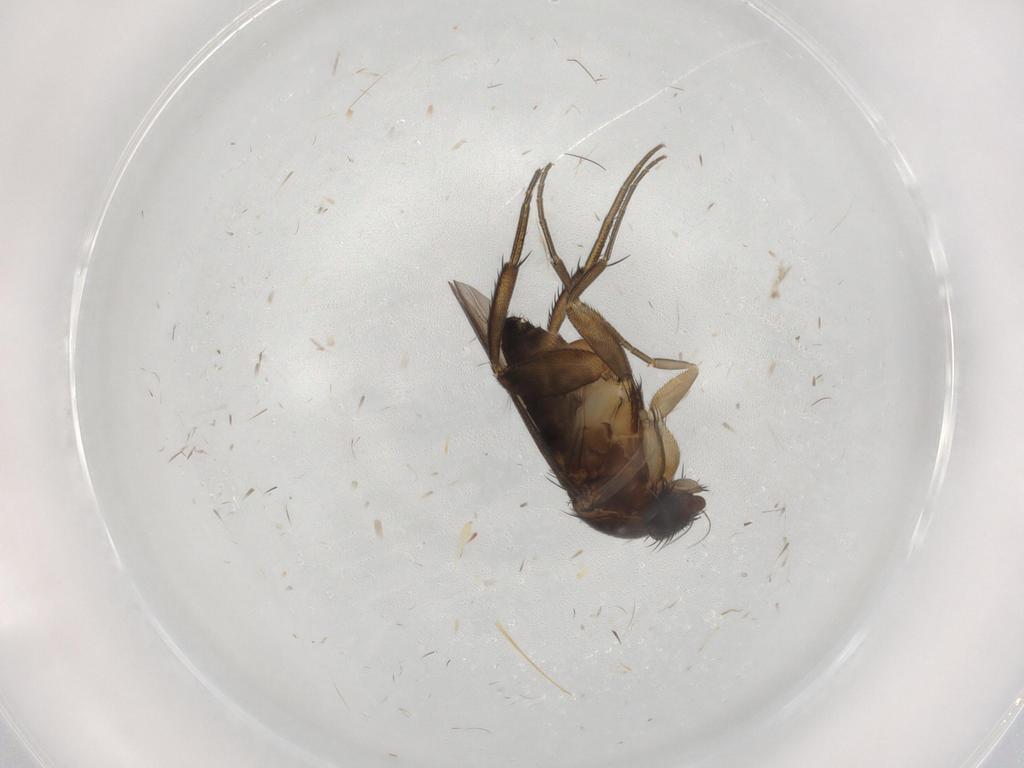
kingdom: Animalia
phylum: Arthropoda
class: Insecta
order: Diptera
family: Phoridae
